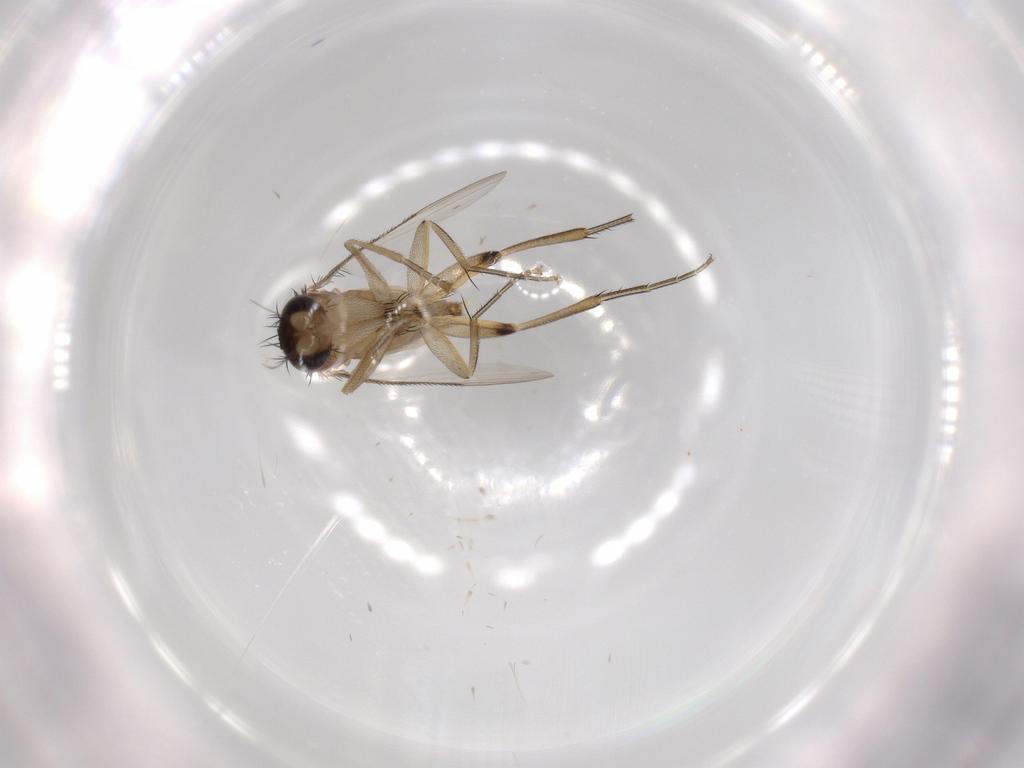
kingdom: Animalia
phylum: Arthropoda
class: Insecta
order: Diptera
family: Phoridae
